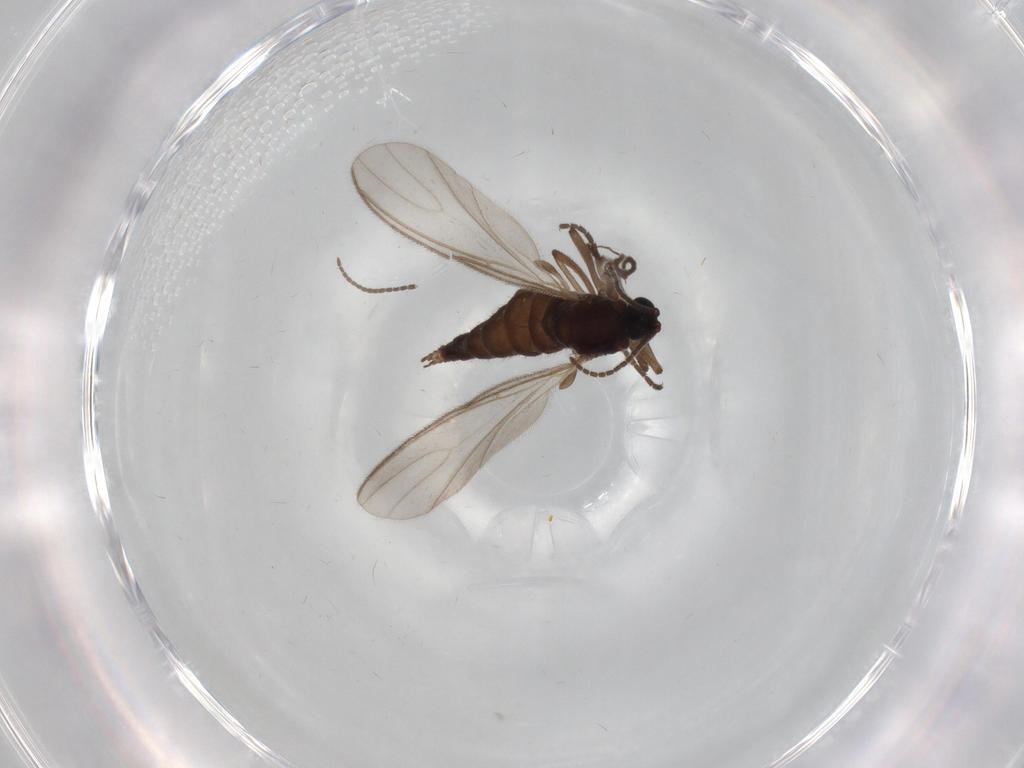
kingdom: Animalia
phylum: Arthropoda
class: Insecta
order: Diptera
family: Sciaridae
